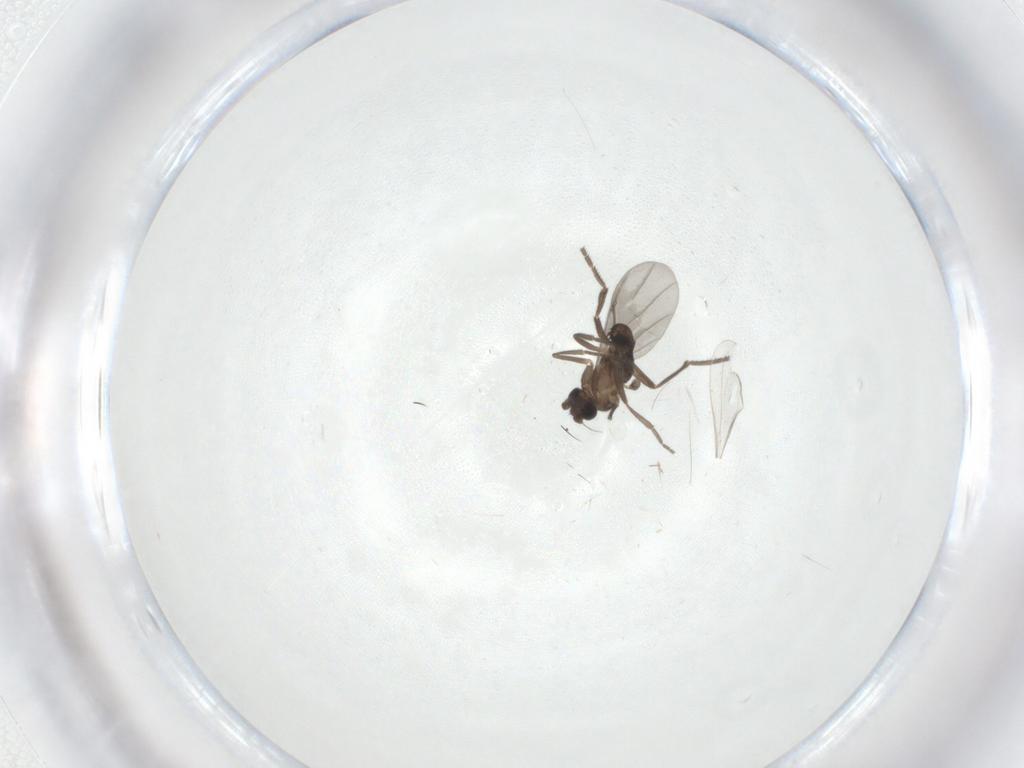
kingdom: Animalia
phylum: Arthropoda
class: Insecta
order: Diptera
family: Phoridae
